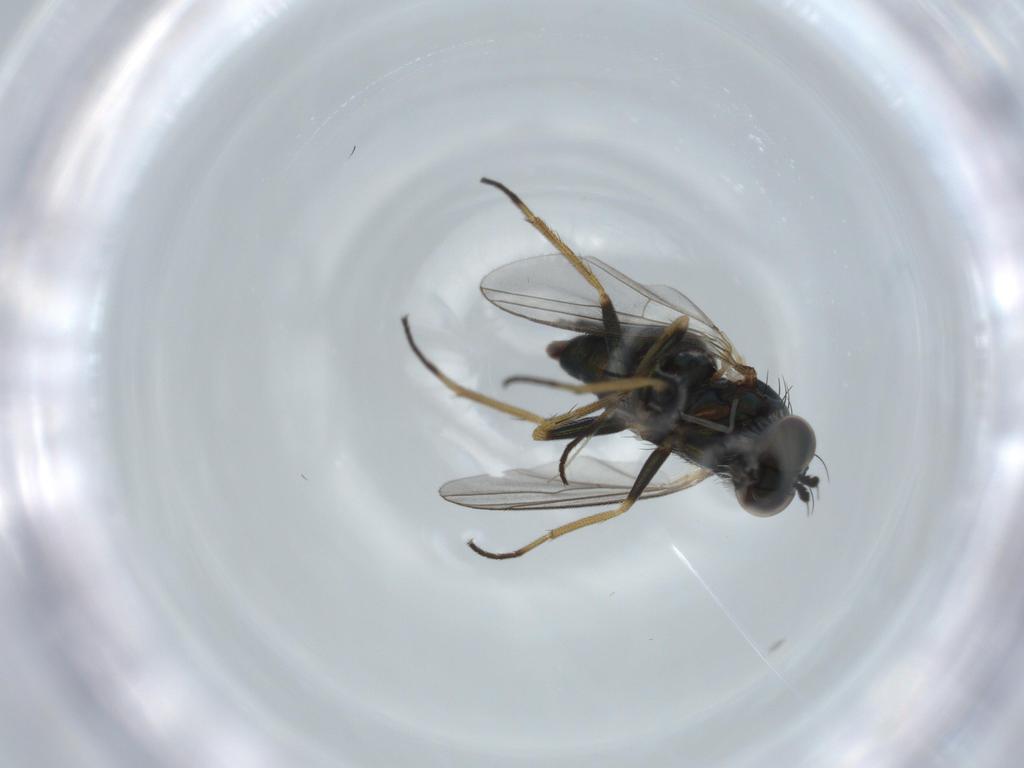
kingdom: Animalia
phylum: Arthropoda
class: Insecta
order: Diptera
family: Dolichopodidae
